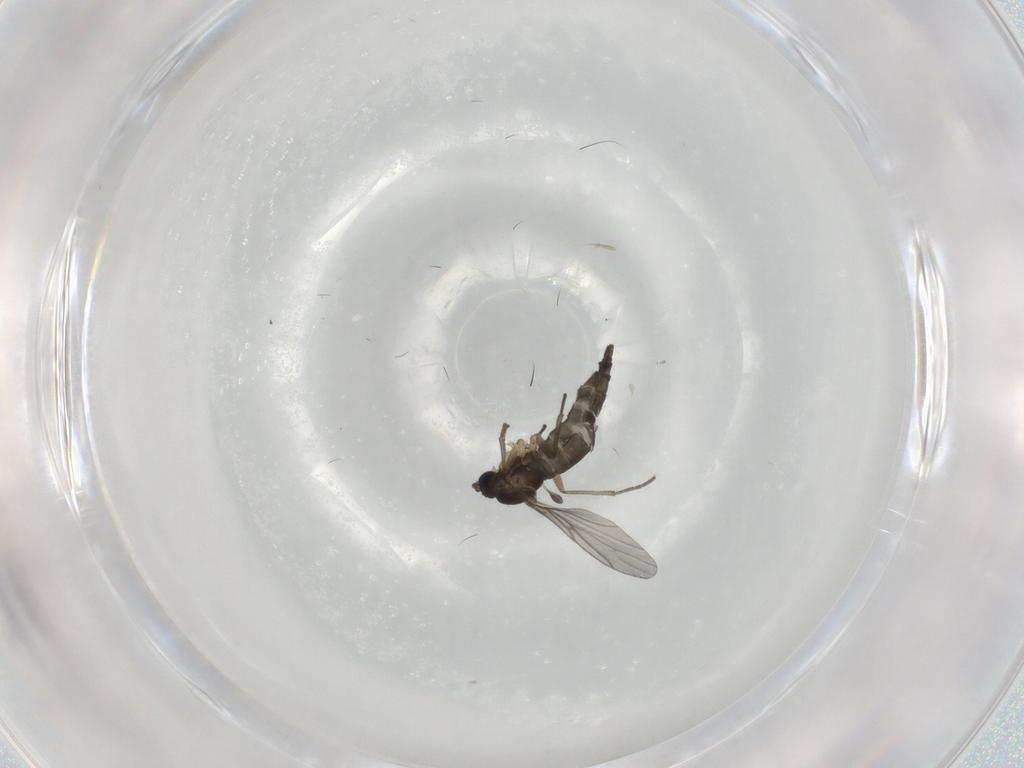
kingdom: Animalia
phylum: Arthropoda
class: Insecta
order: Diptera
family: Sciaridae
